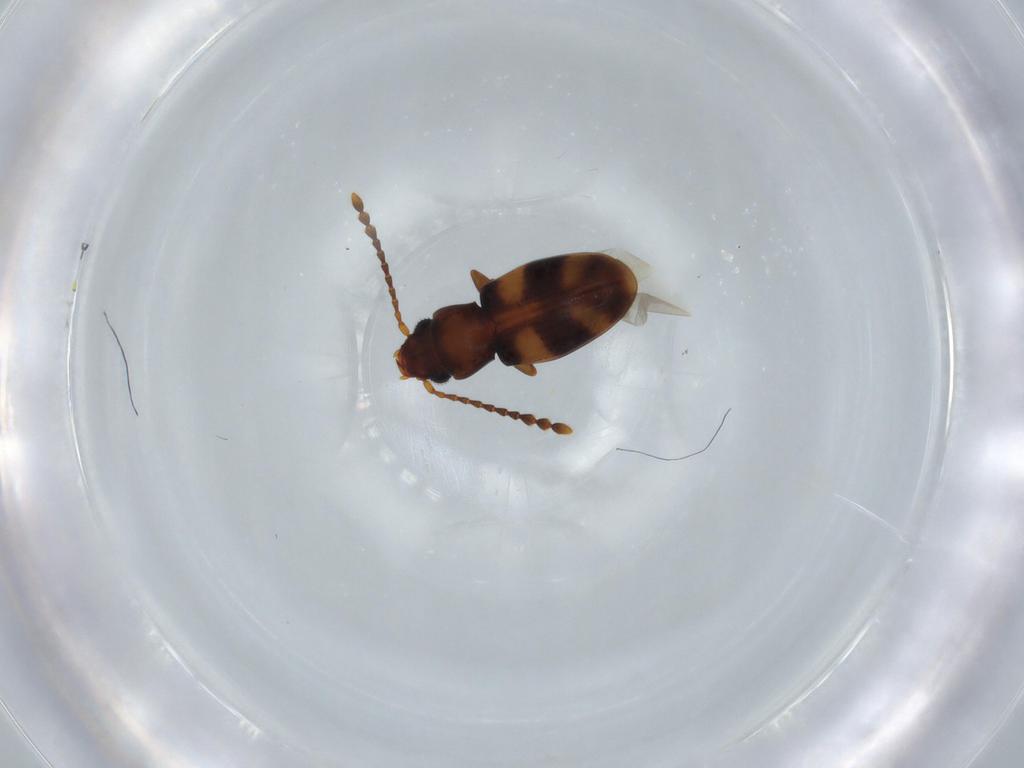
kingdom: Animalia
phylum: Arthropoda
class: Insecta
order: Coleoptera
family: Laemophloeidae
